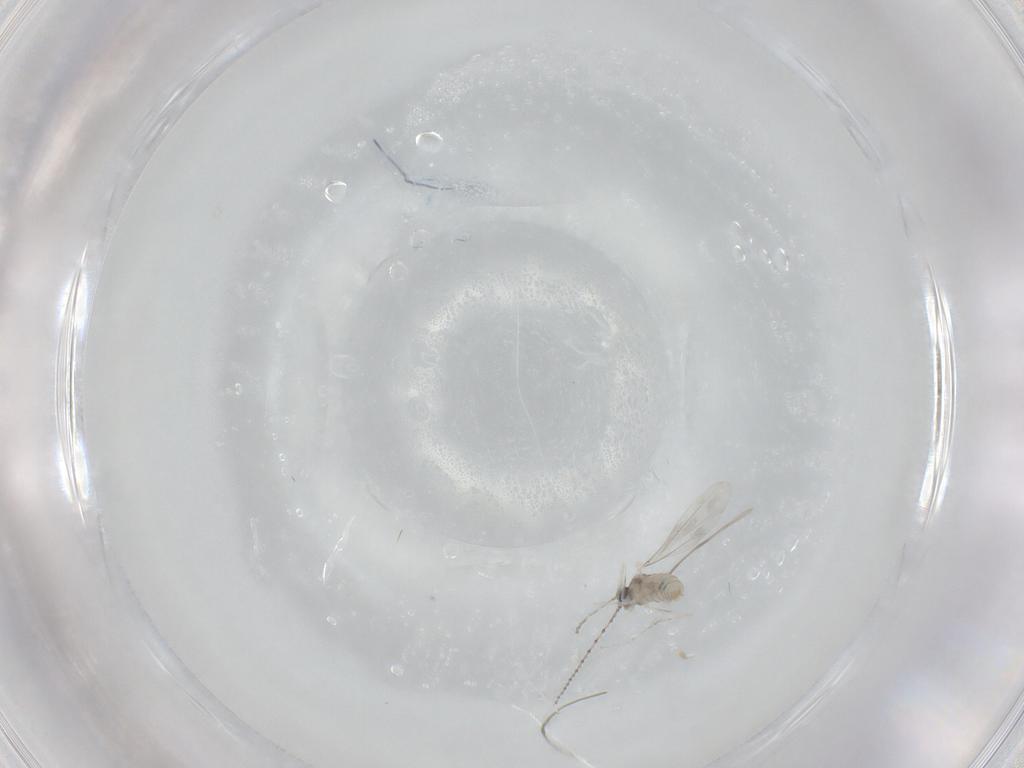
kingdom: Animalia
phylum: Arthropoda
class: Insecta
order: Diptera
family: Cecidomyiidae
